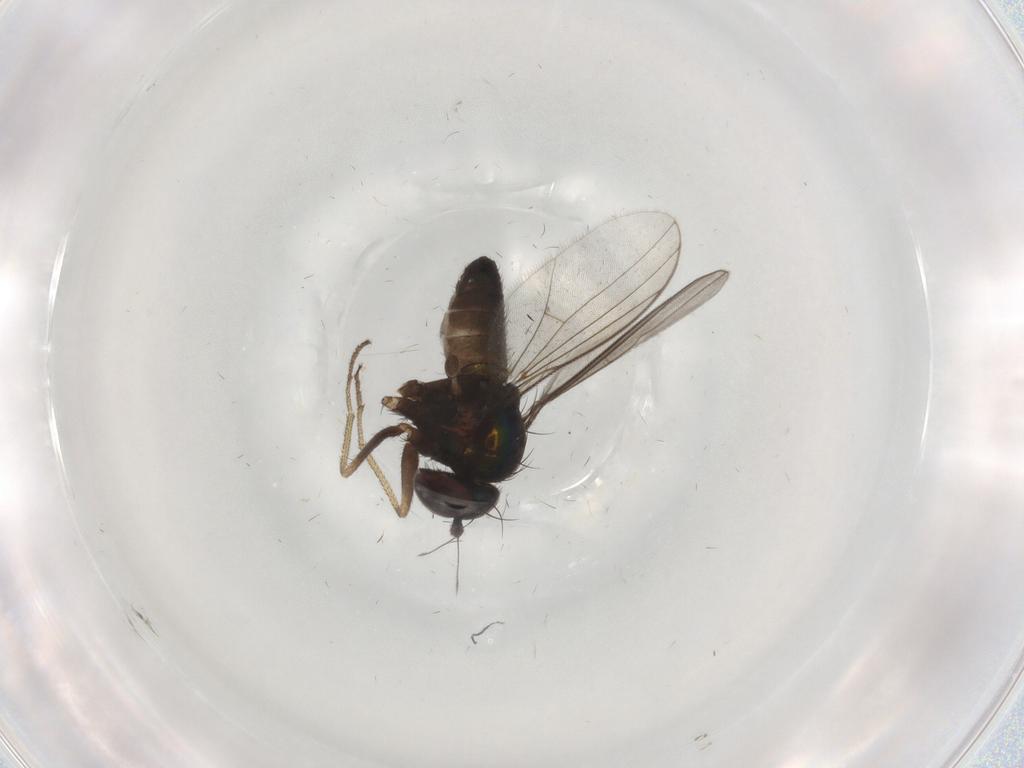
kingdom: Animalia
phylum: Arthropoda
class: Insecta
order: Diptera
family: Dolichopodidae
